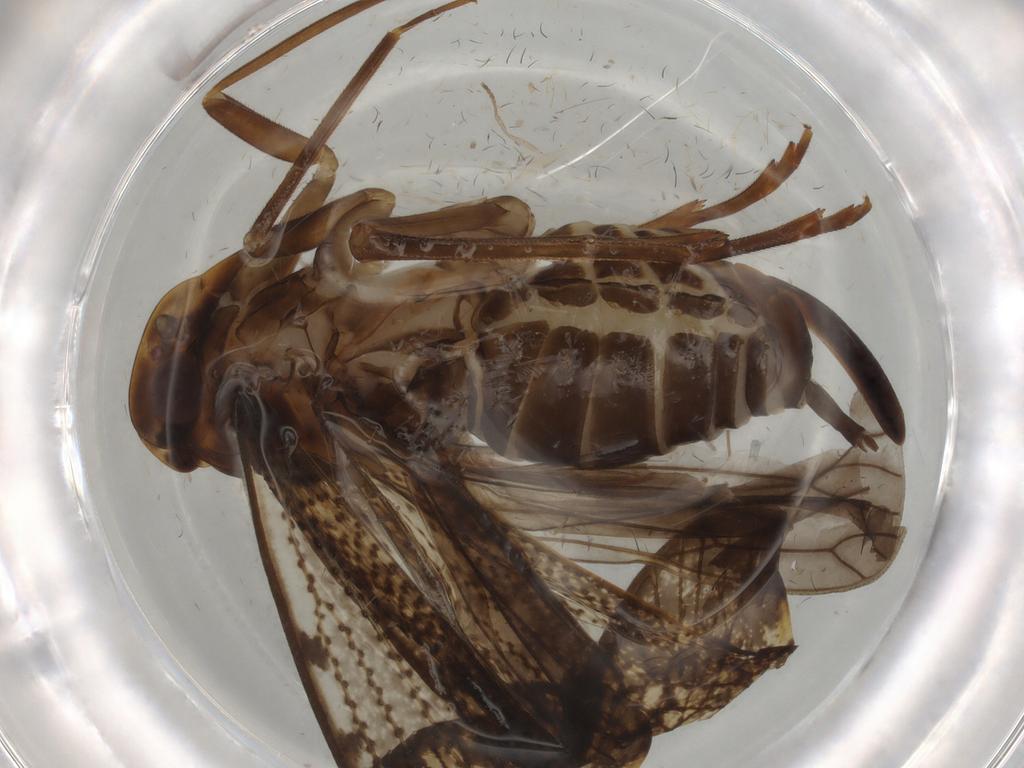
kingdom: Animalia
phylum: Arthropoda
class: Insecta
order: Hemiptera
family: Cixiidae
